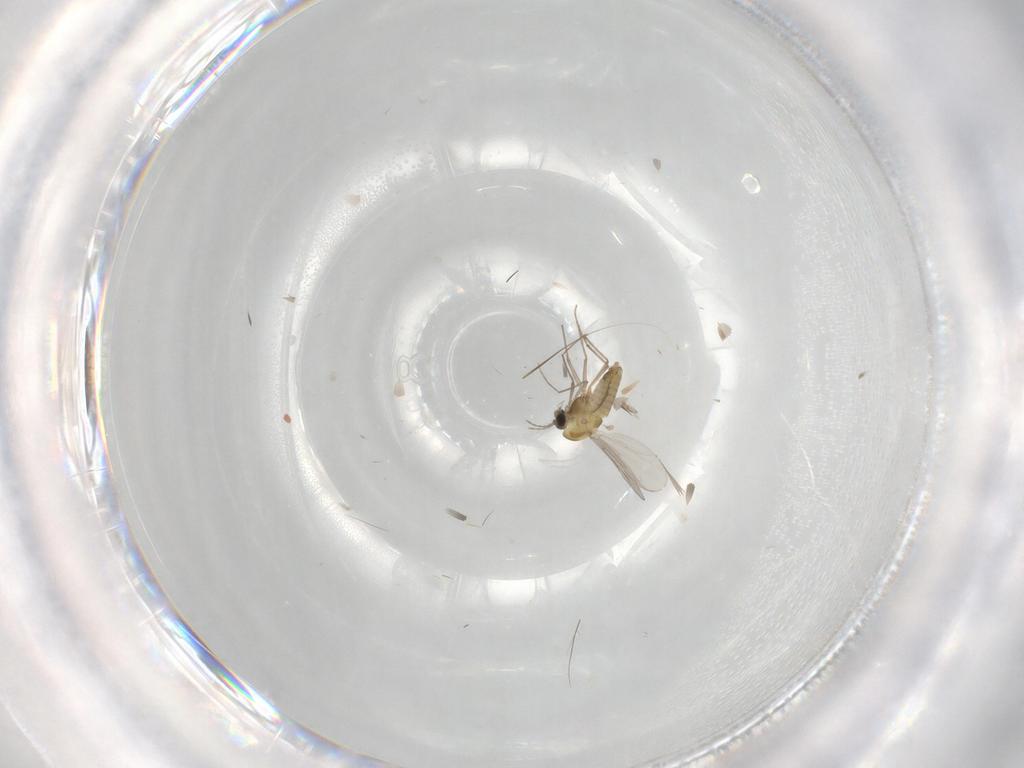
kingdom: Animalia
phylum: Arthropoda
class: Insecta
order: Diptera
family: Chironomidae
